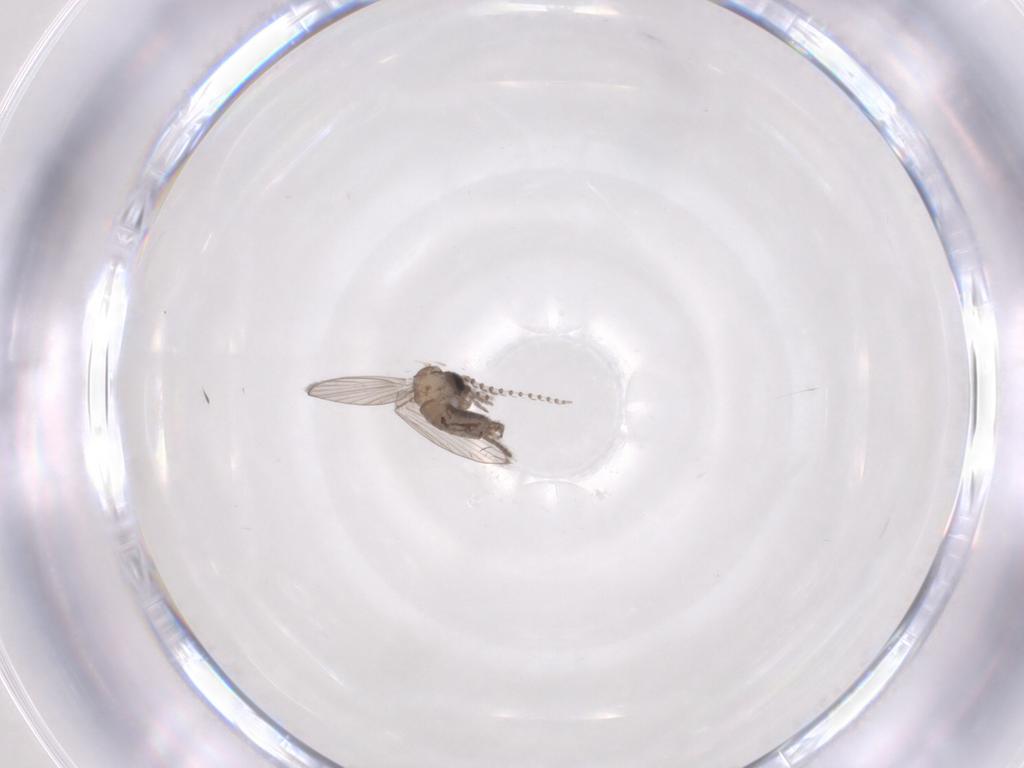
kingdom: Animalia
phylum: Arthropoda
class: Insecta
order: Diptera
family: Psychodidae
